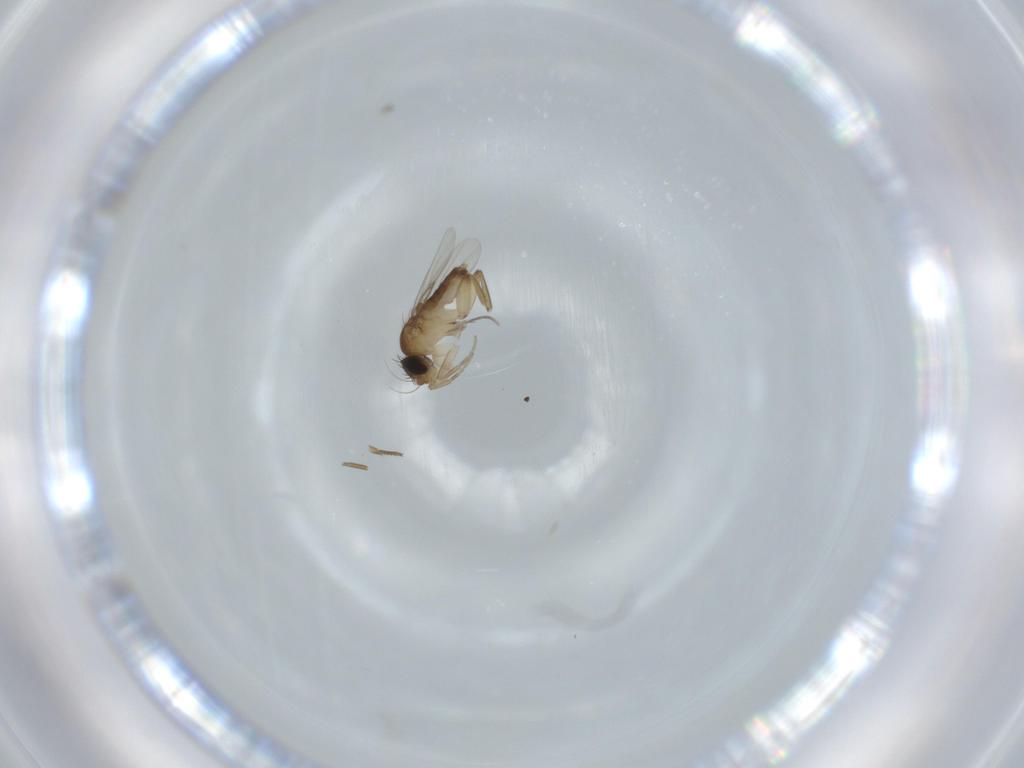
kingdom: Animalia
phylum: Arthropoda
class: Insecta
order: Diptera
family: Phoridae
